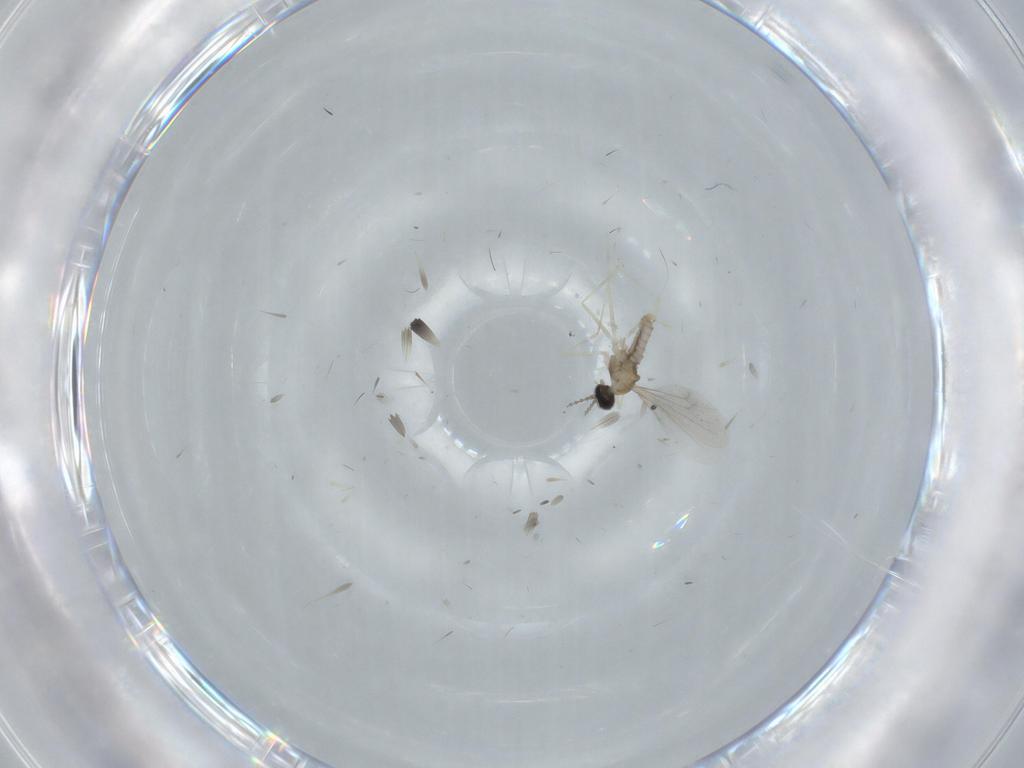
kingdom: Animalia
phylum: Arthropoda
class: Insecta
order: Diptera
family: Cecidomyiidae
